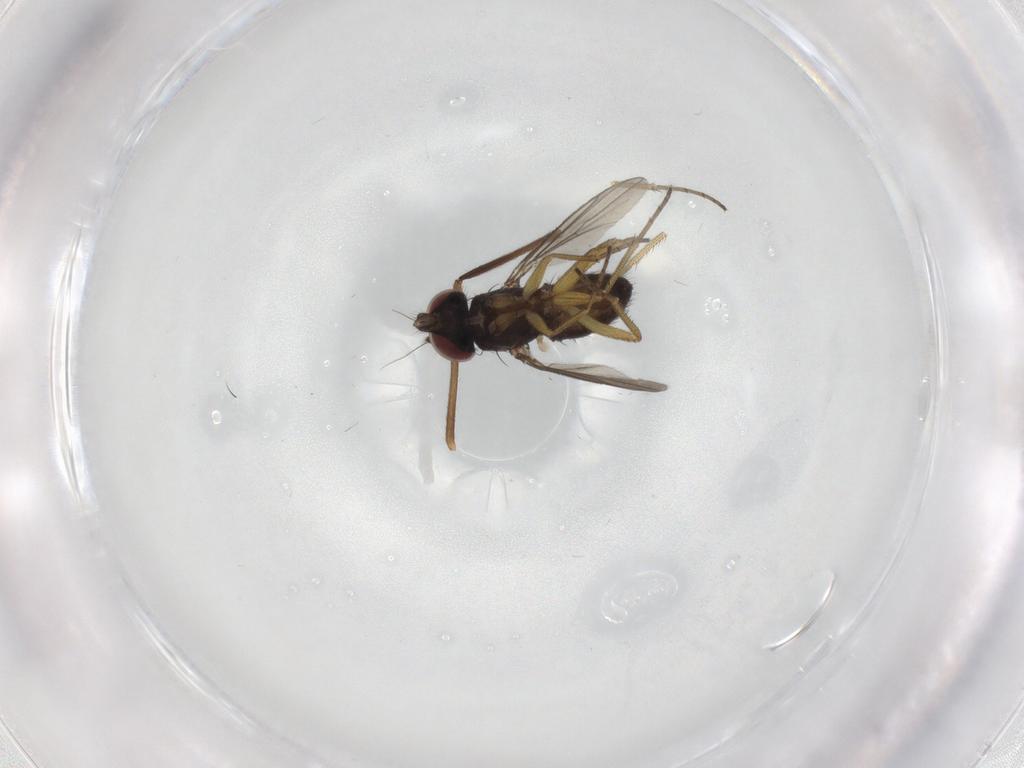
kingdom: Animalia
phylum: Arthropoda
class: Insecta
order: Diptera
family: Dolichopodidae
